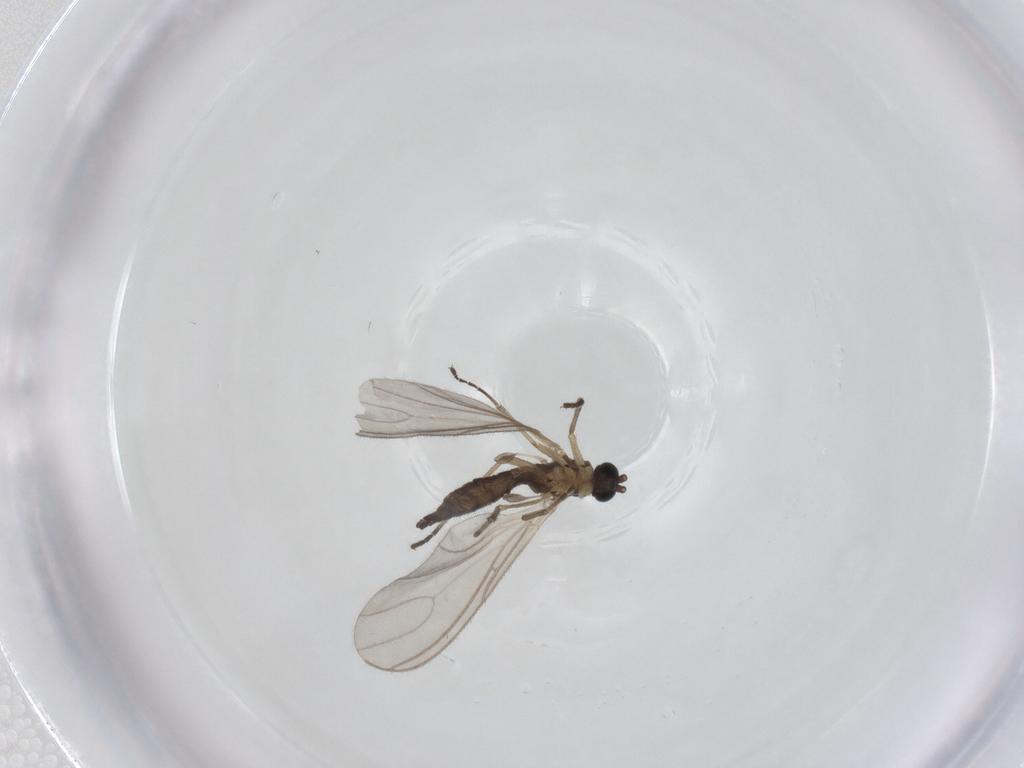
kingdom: Animalia
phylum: Arthropoda
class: Insecta
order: Diptera
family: Sciaridae
